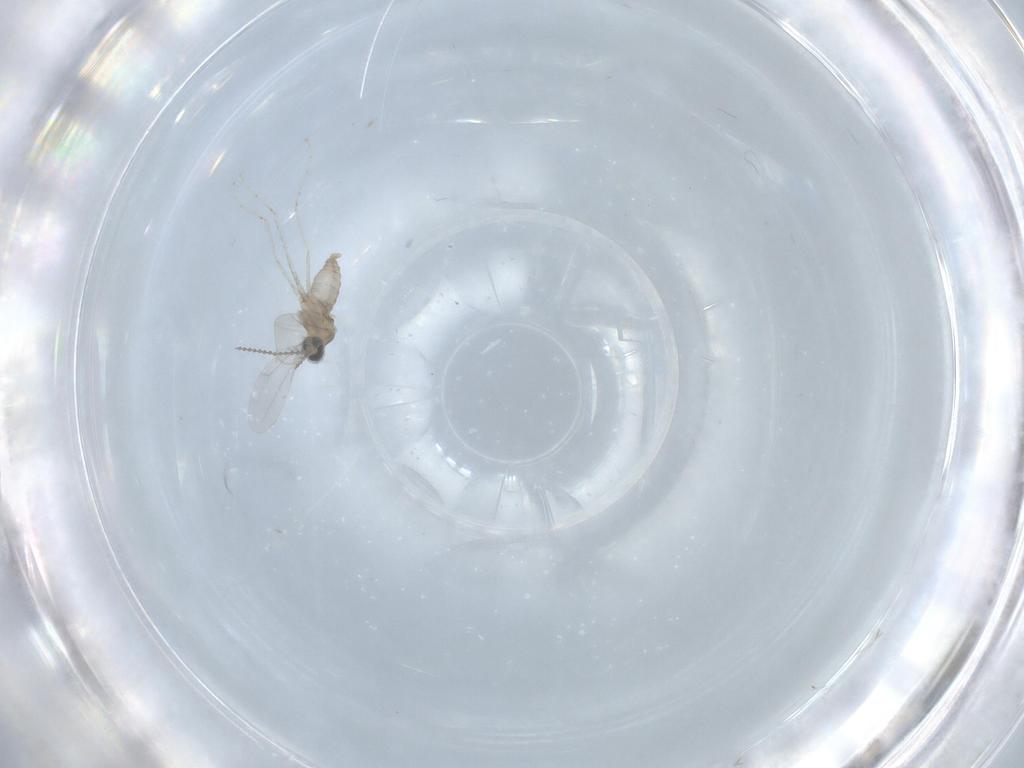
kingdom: Animalia
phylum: Arthropoda
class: Insecta
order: Diptera
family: Cecidomyiidae
